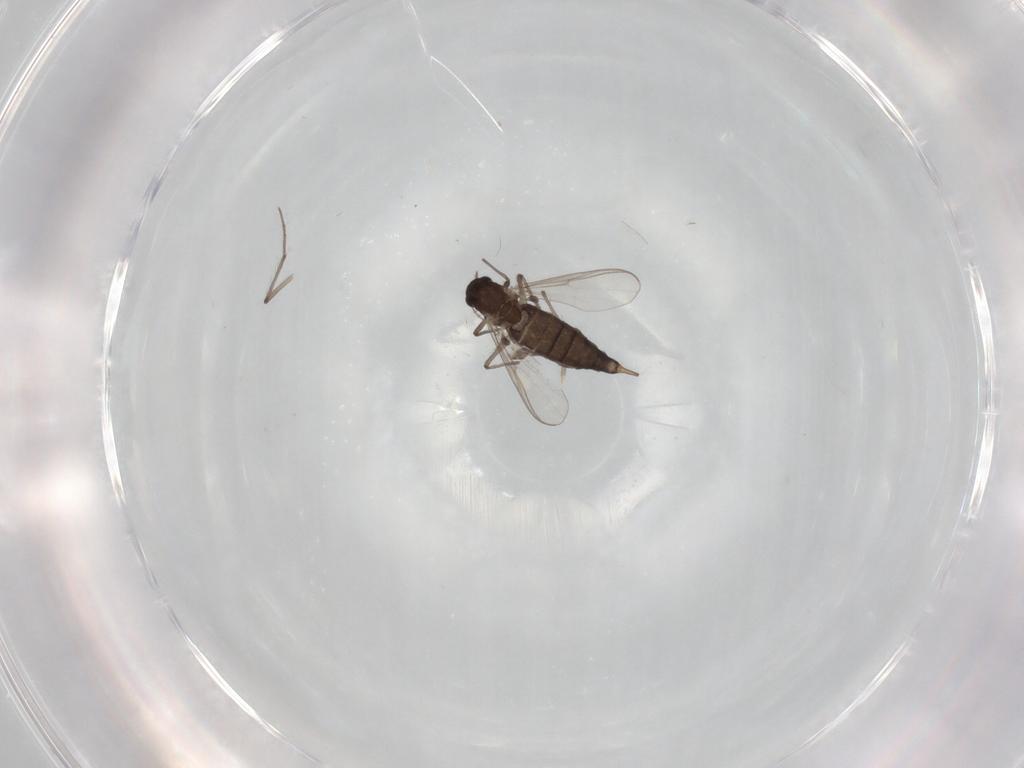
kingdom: Animalia
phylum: Arthropoda
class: Insecta
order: Diptera
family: Chironomidae
